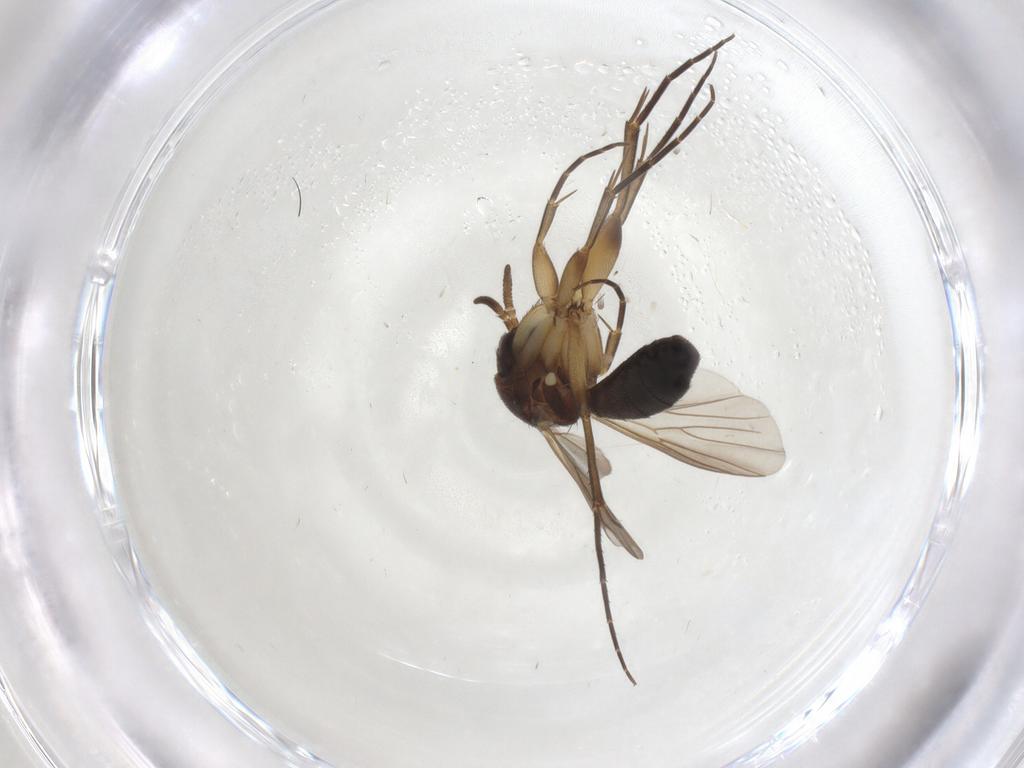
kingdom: Animalia
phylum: Arthropoda
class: Insecta
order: Diptera
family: Mycetophilidae
